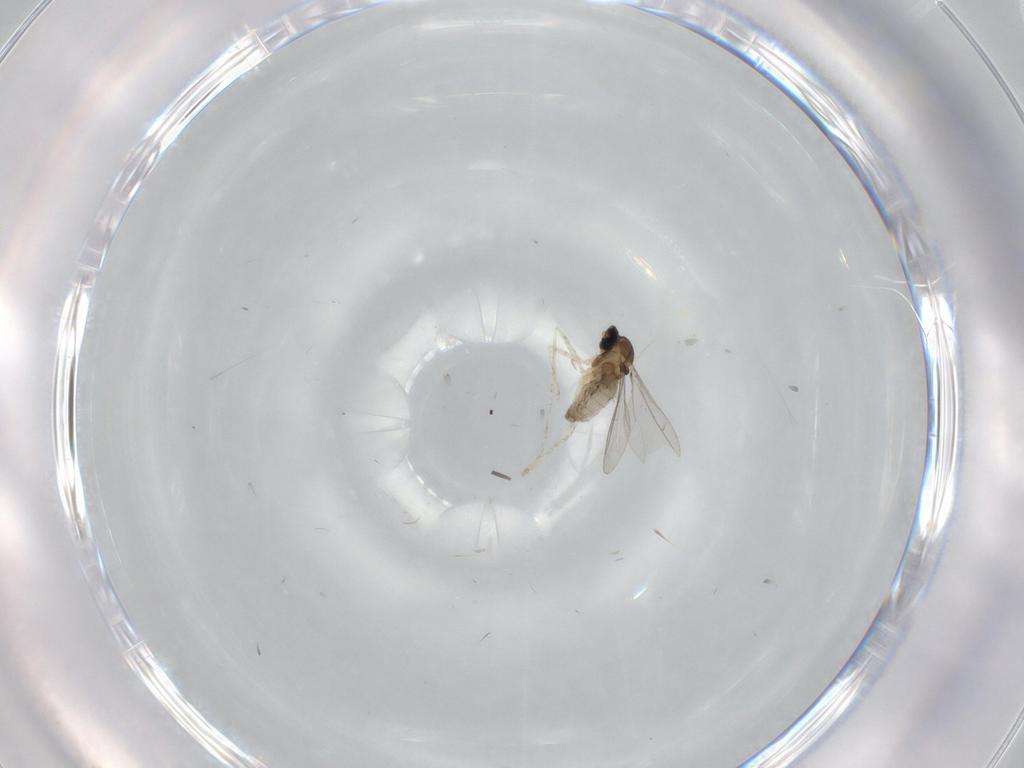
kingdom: Animalia
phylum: Arthropoda
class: Insecta
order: Diptera
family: Cecidomyiidae
